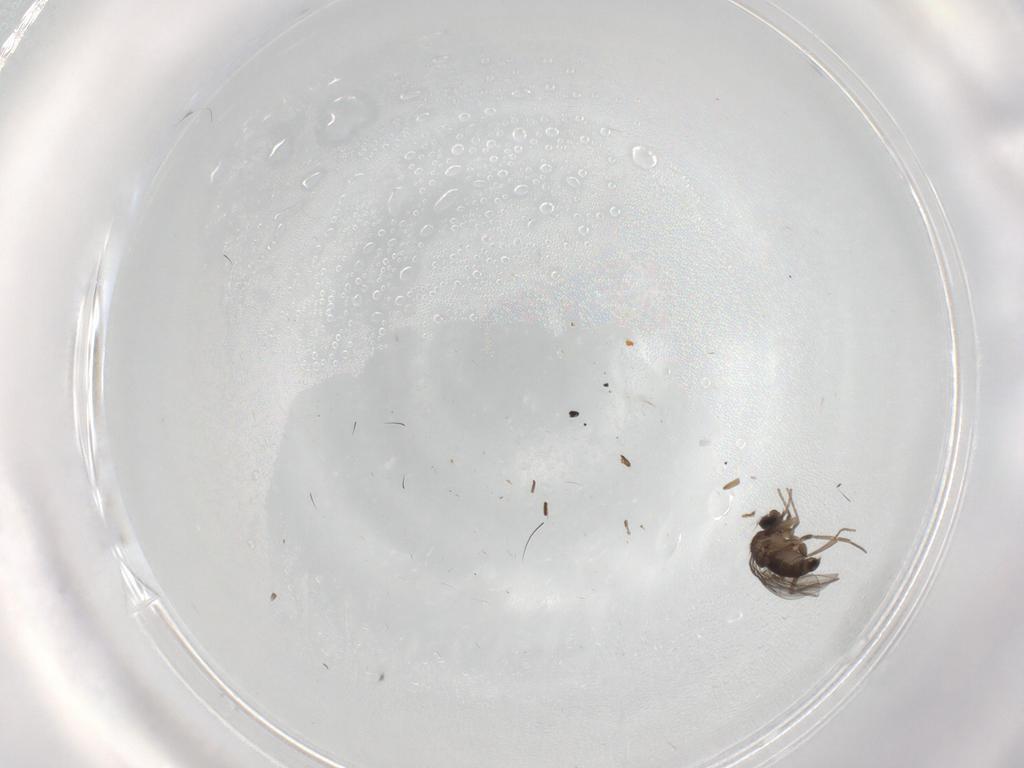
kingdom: Animalia
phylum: Arthropoda
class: Insecta
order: Diptera
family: Phoridae
